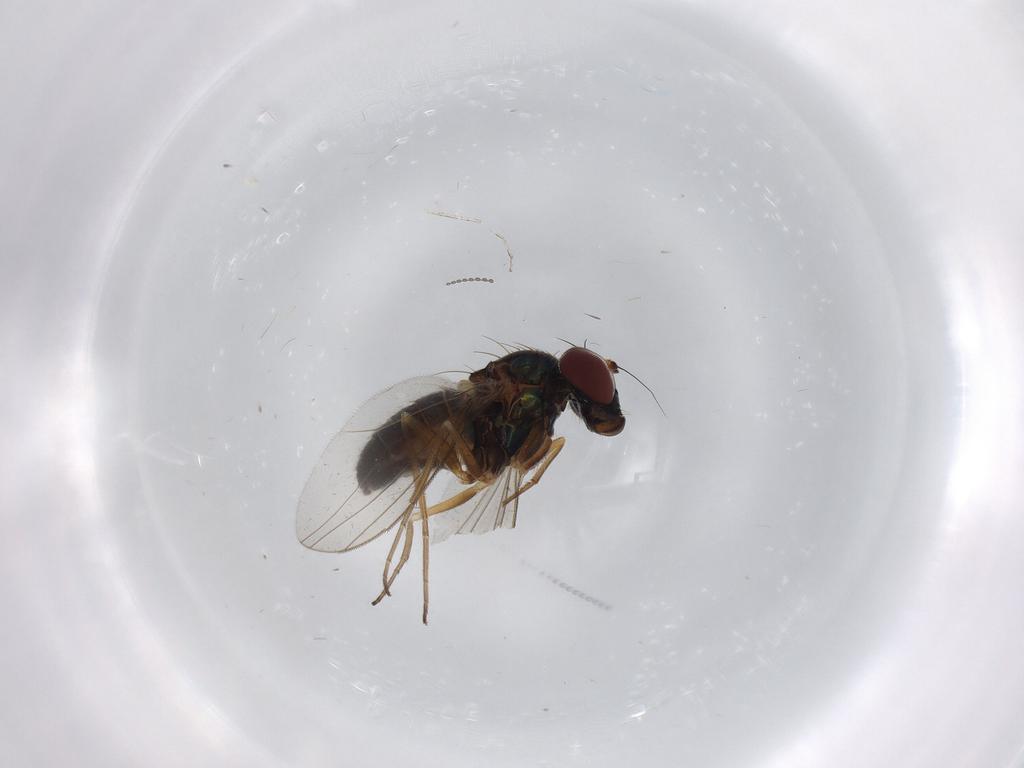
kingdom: Animalia
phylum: Arthropoda
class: Insecta
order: Diptera
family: Dolichopodidae
